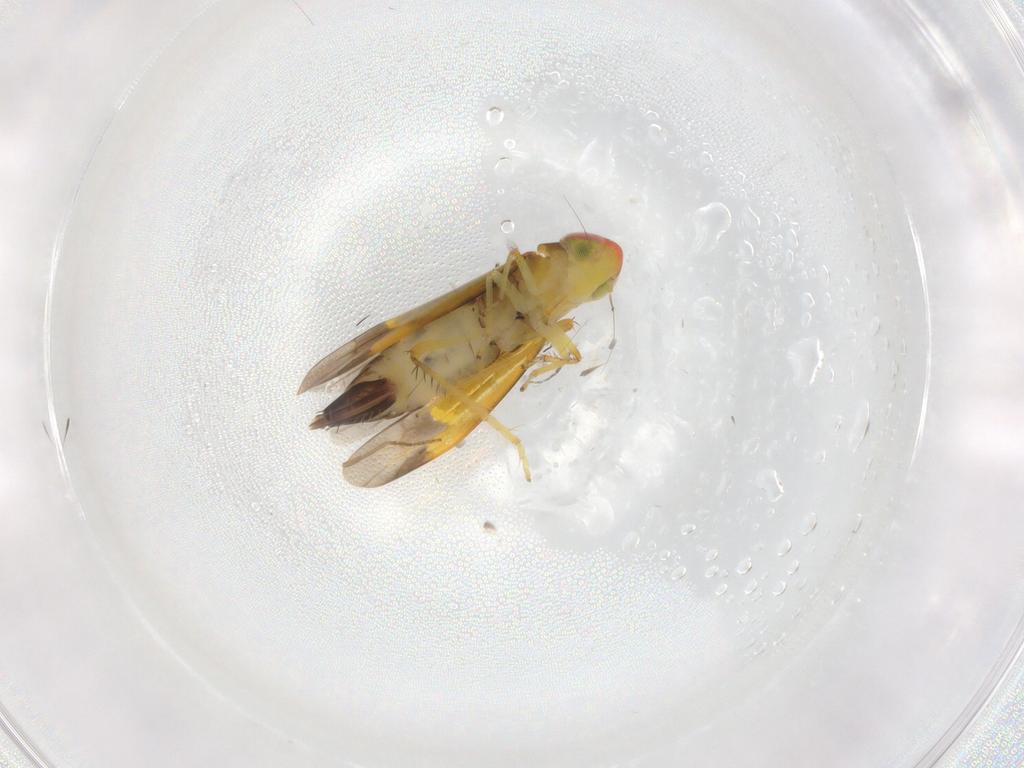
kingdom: Animalia
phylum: Arthropoda
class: Insecta
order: Hemiptera
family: Cicadellidae
